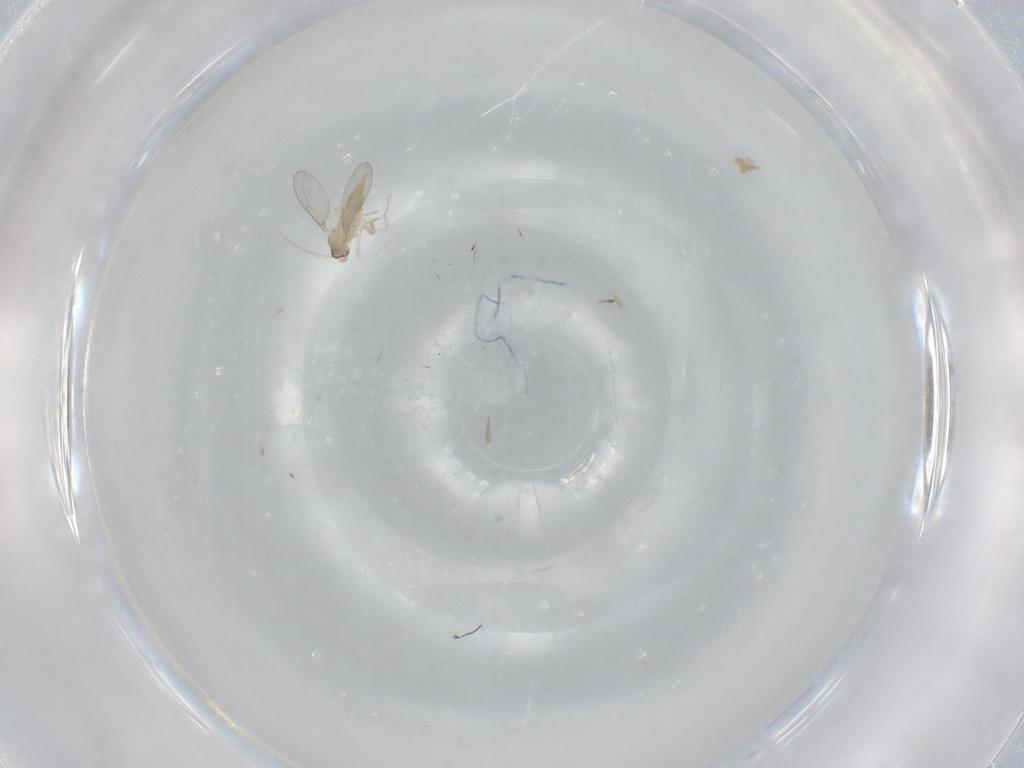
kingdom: Animalia
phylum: Arthropoda
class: Insecta
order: Diptera
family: Cecidomyiidae
